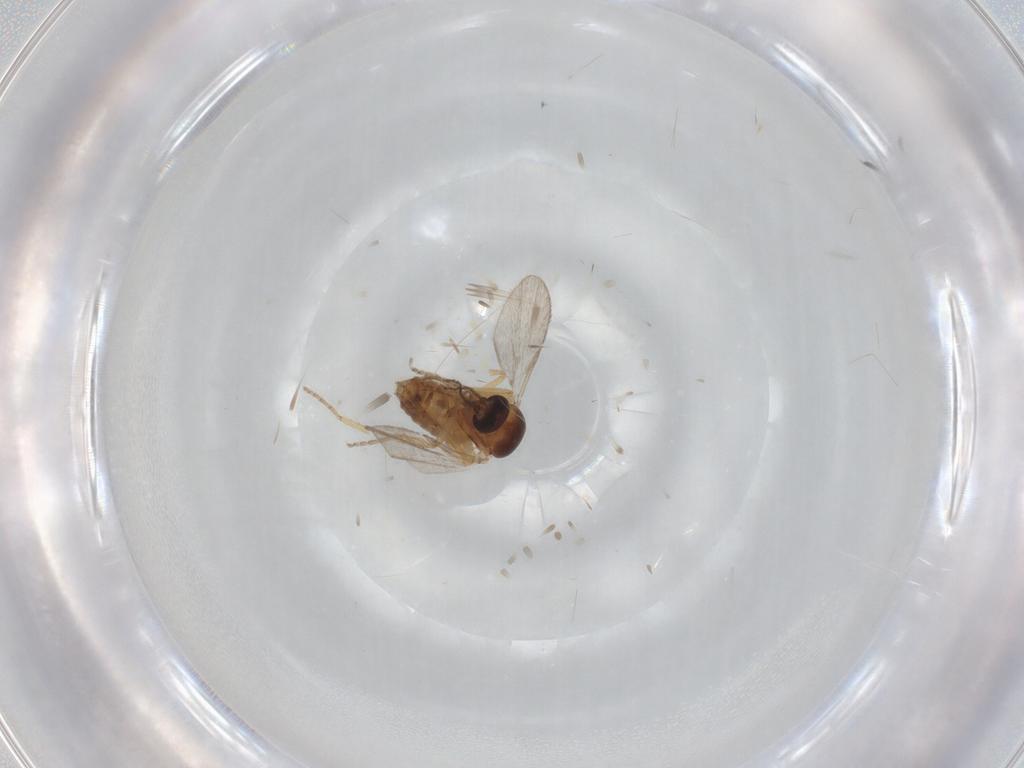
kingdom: Animalia
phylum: Arthropoda
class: Insecta
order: Diptera
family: Ceratopogonidae
